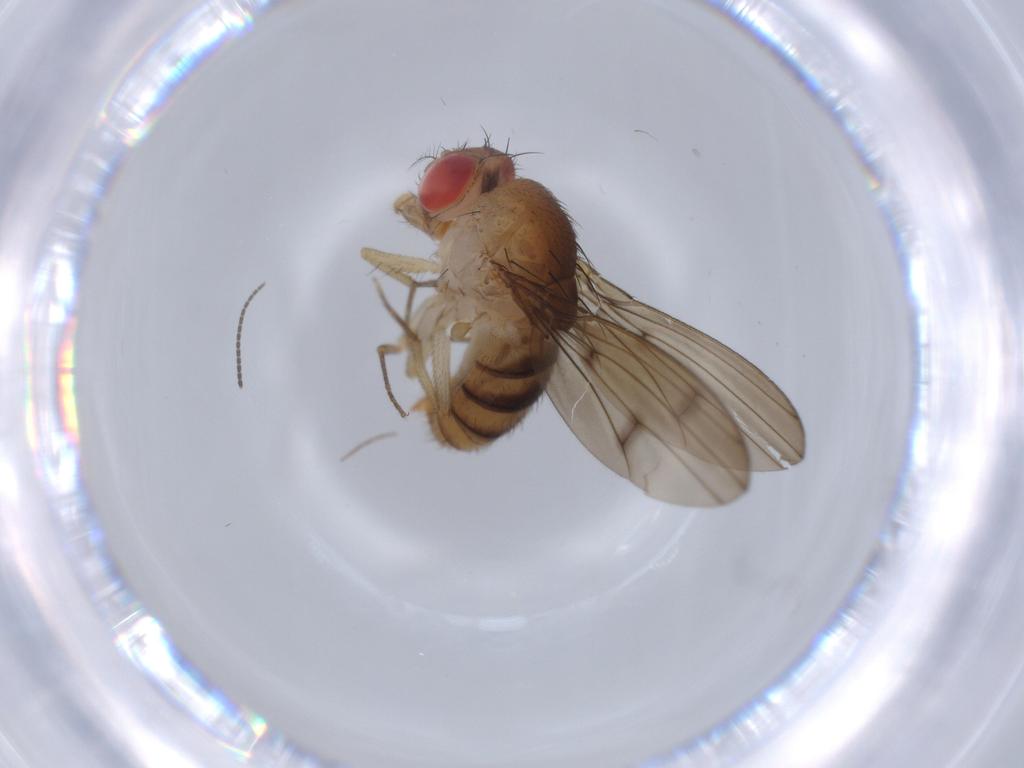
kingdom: Animalia
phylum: Arthropoda
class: Insecta
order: Diptera
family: Drosophilidae
